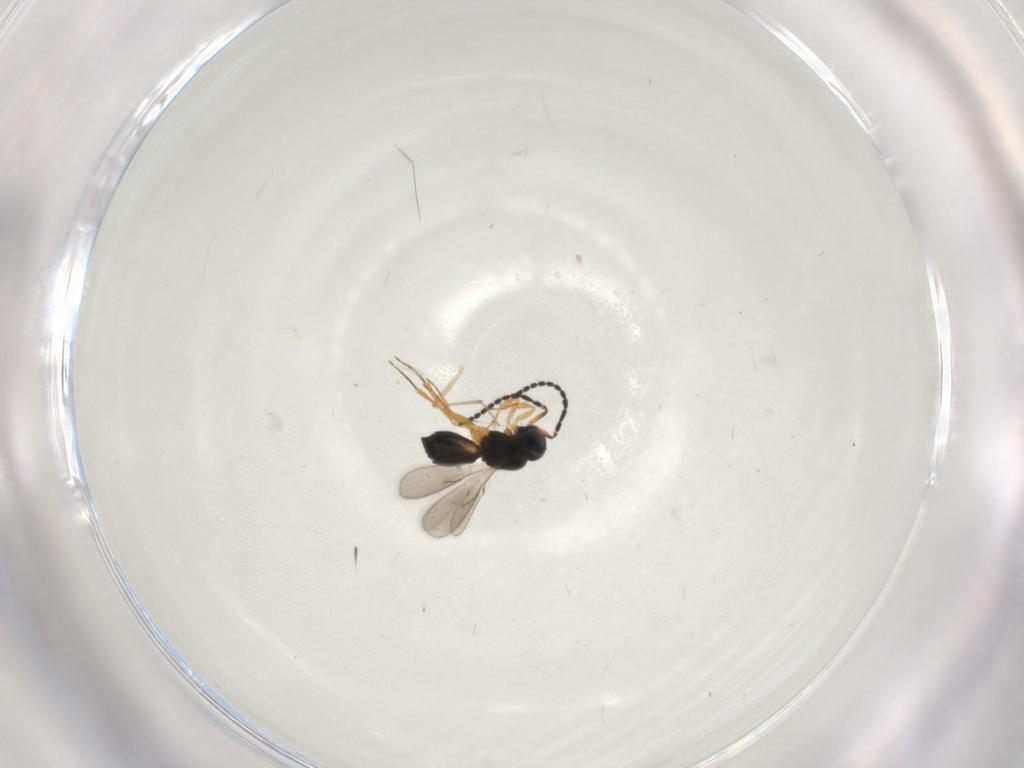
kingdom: Animalia
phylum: Arthropoda
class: Insecta
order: Hymenoptera
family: Scelionidae
